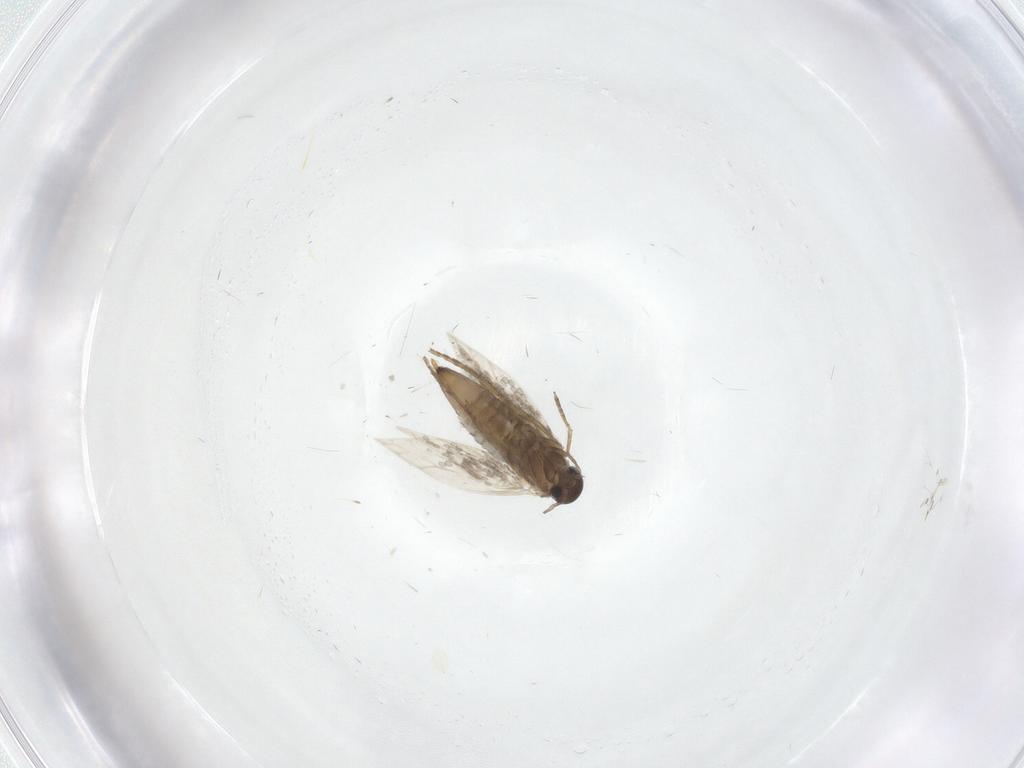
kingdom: Animalia
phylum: Arthropoda
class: Insecta
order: Lepidoptera
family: Heliozelidae
